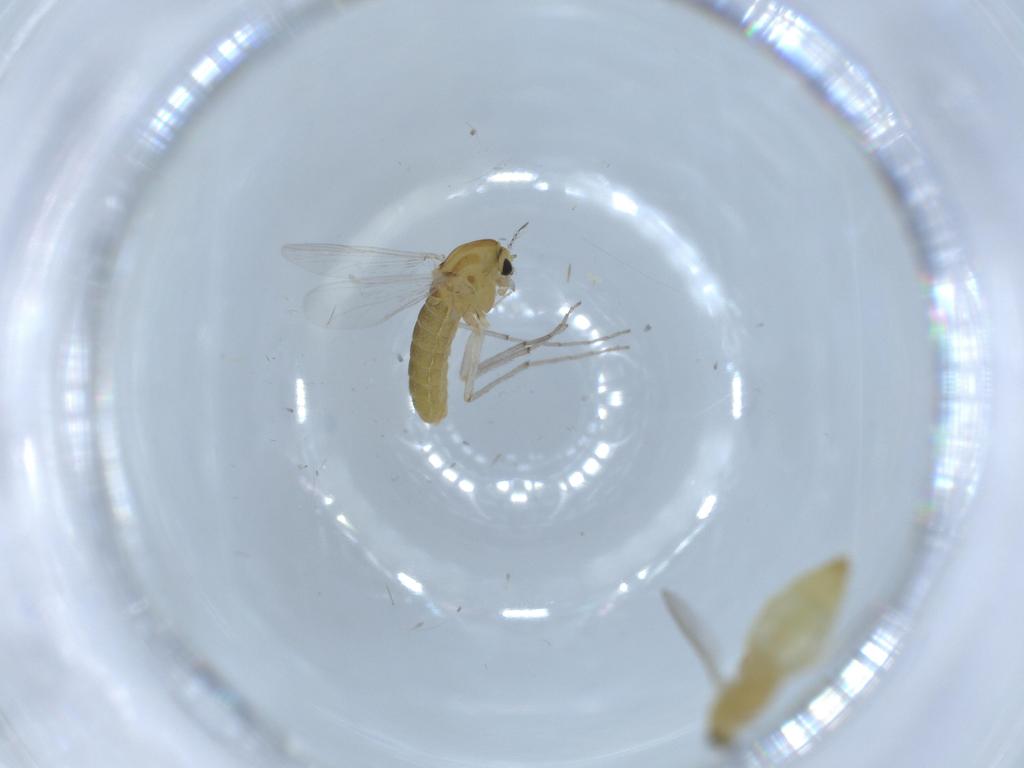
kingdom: Animalia
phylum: Arthropoda
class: Insecta
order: Diptera
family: Chironomidae
